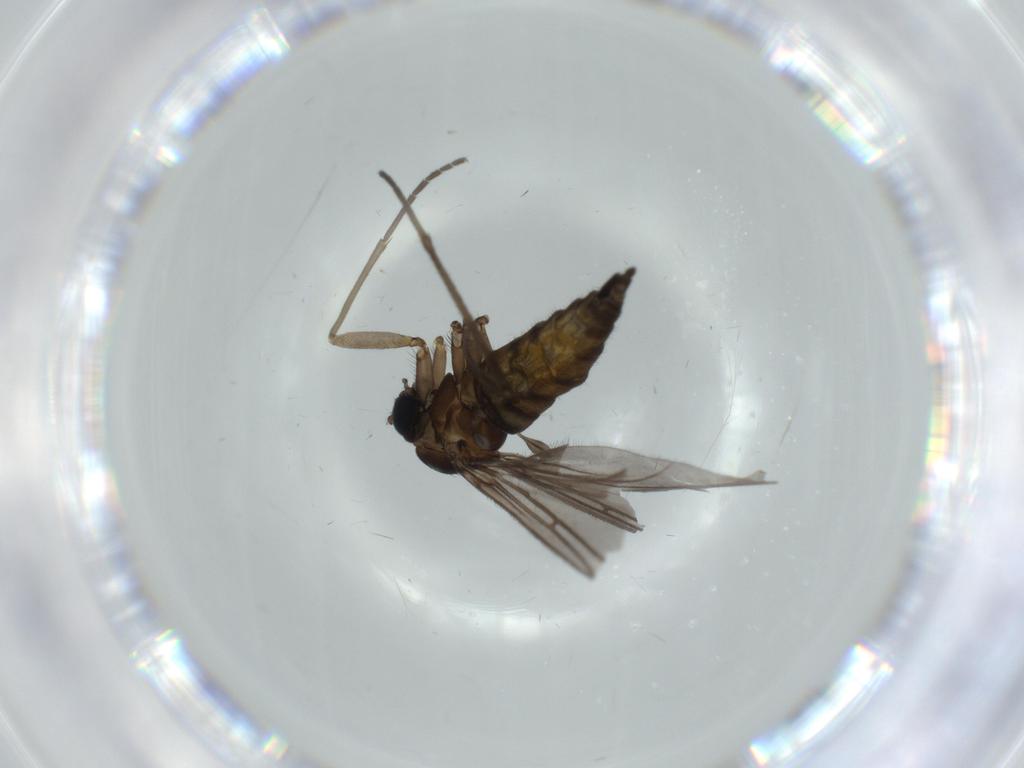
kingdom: Animalia
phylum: Arthropoda
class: Insecta
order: Diptera
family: Sciaridae
